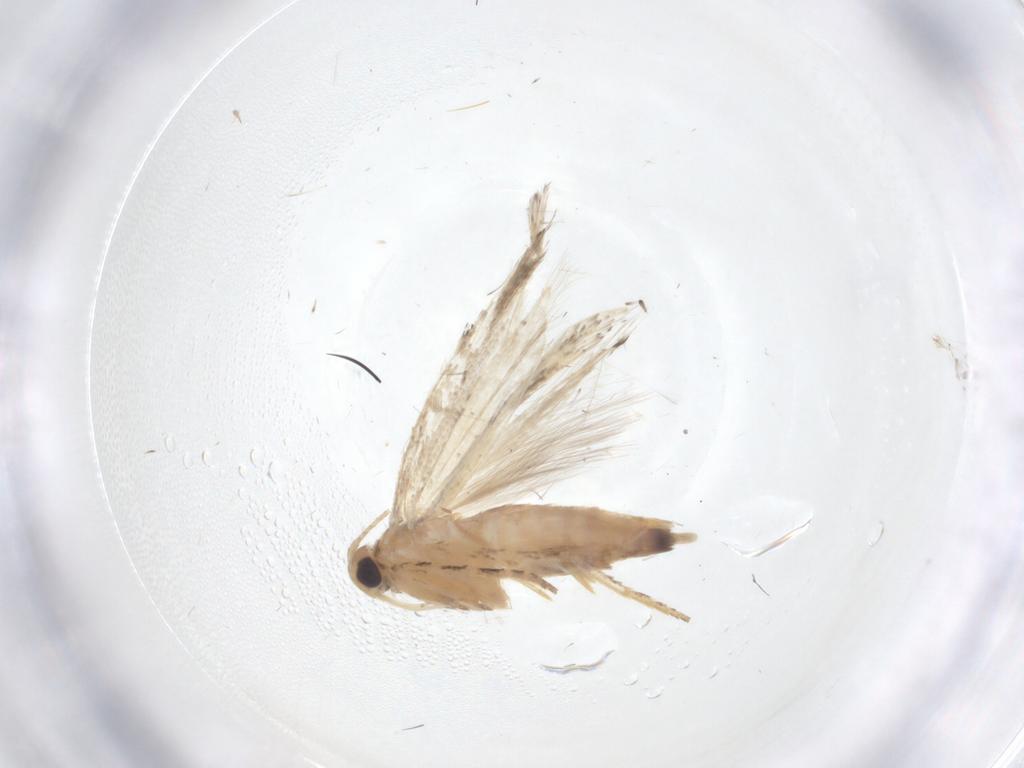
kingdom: Animalia
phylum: Arthropoda
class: Insecta
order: Lepidoptera
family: Gelechiidae
